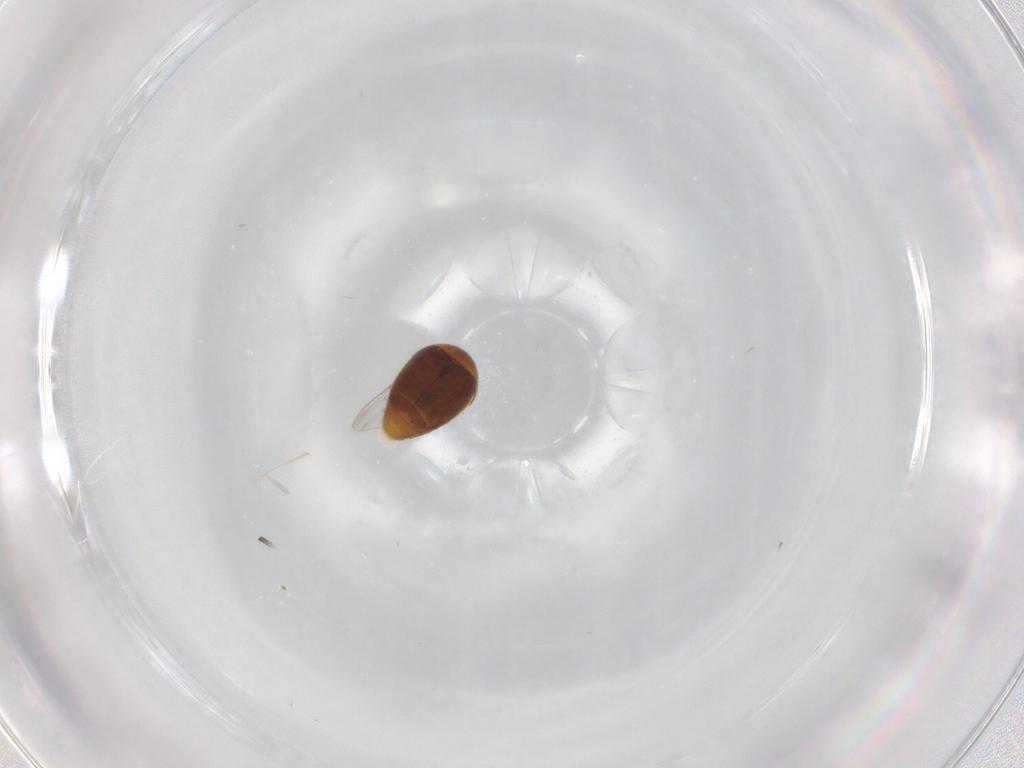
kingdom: Animalia
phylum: Arthropoda
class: Insecta
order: Coleoptera
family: Corylophidae
